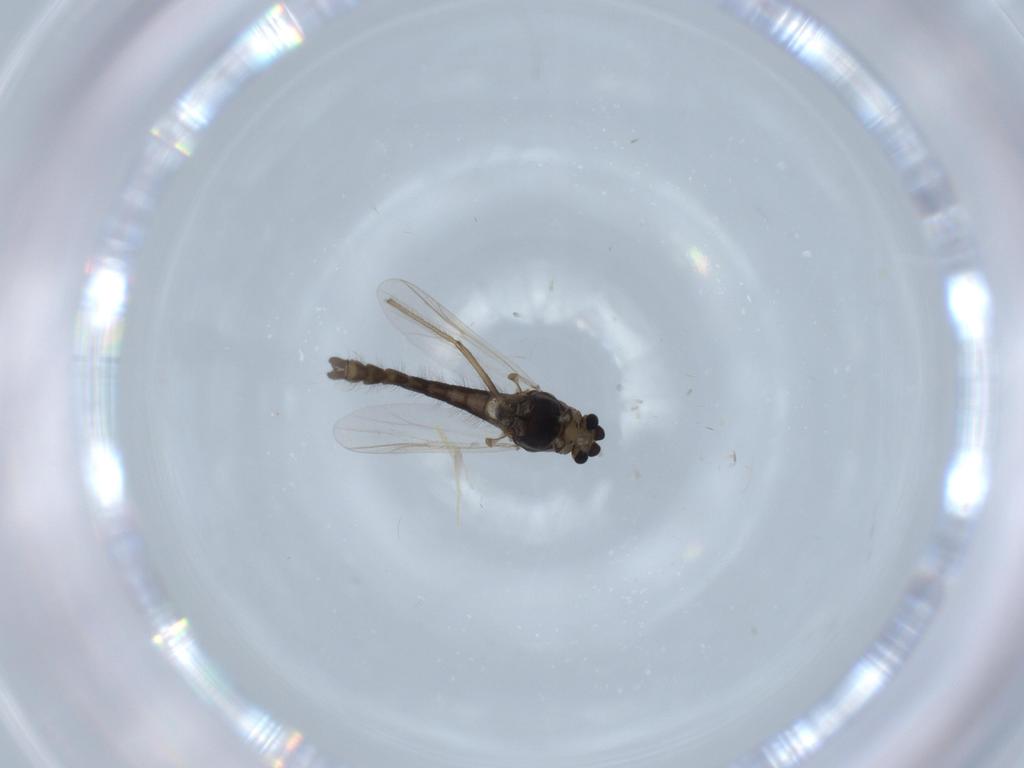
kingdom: Animalia
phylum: Arthropoda
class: Insecta
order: Diptera
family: Chironomidae
